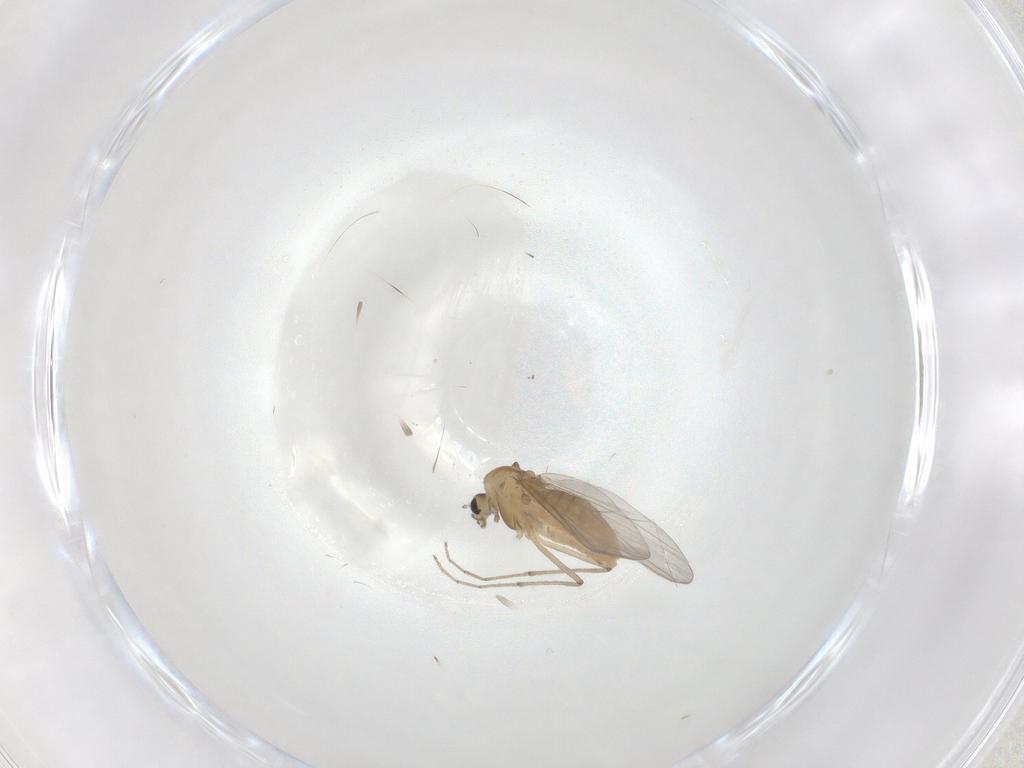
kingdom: Animalia
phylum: Arthropoda
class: Insecta
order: Diptera
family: Chironomidae
